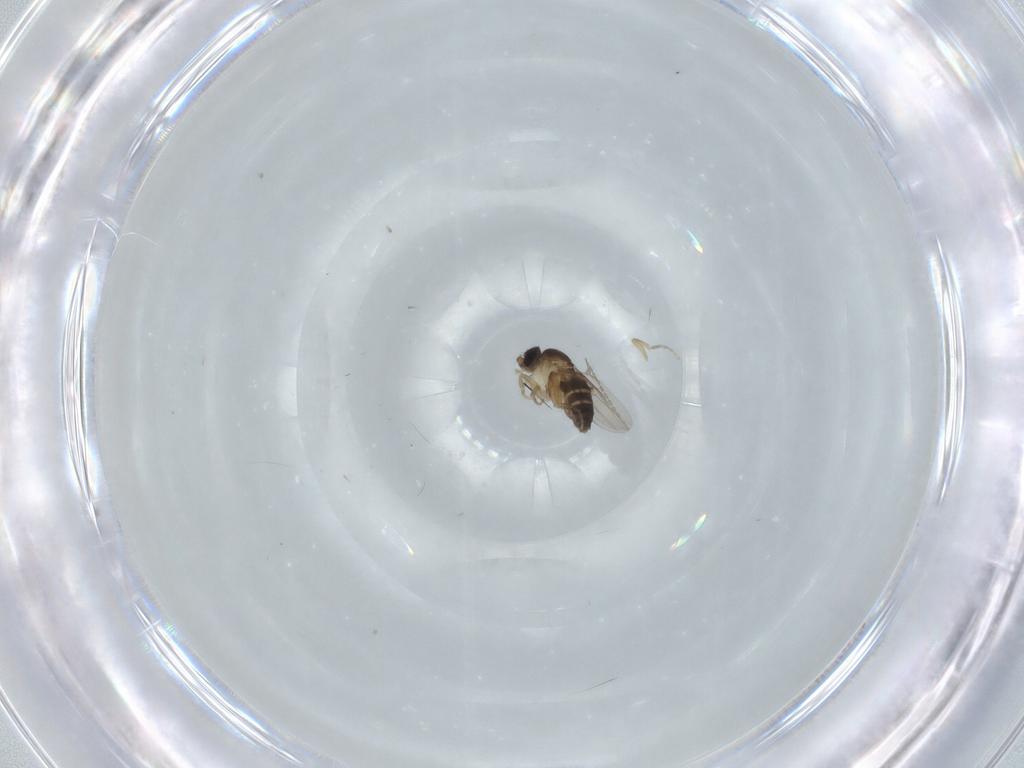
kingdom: Animalia
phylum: Arthropoda
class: Insecta
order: Diptera
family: Phoridae
